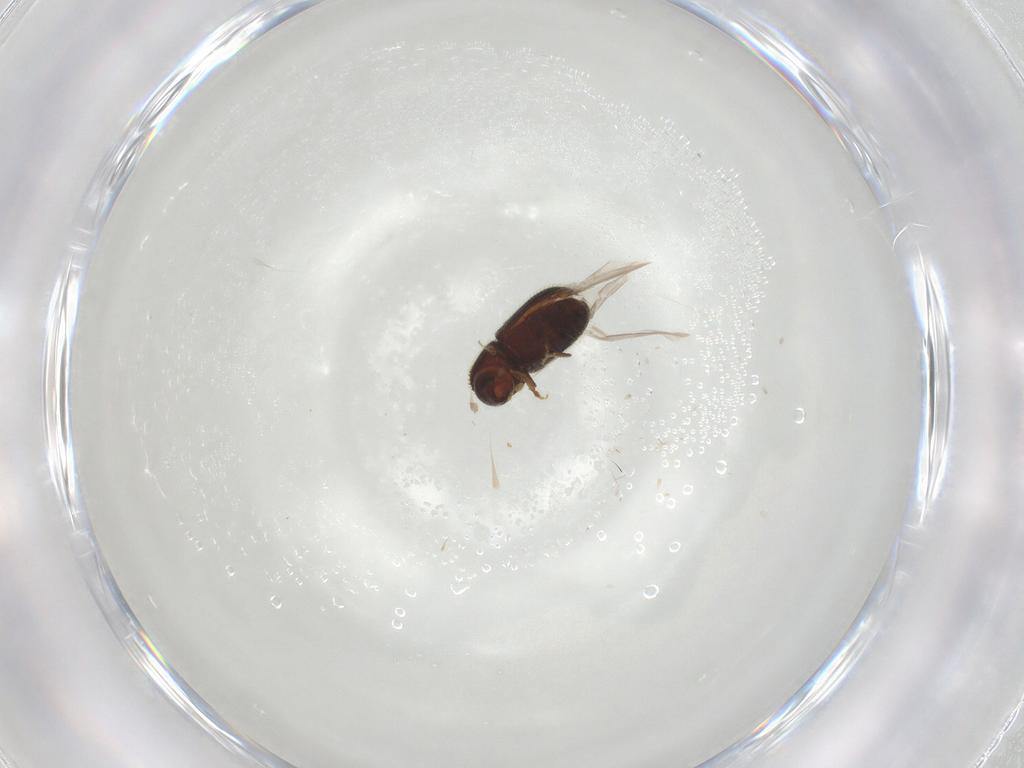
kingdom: Animalia
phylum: Arthropoda
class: Insecta
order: Coleoptera
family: Curculionidae
